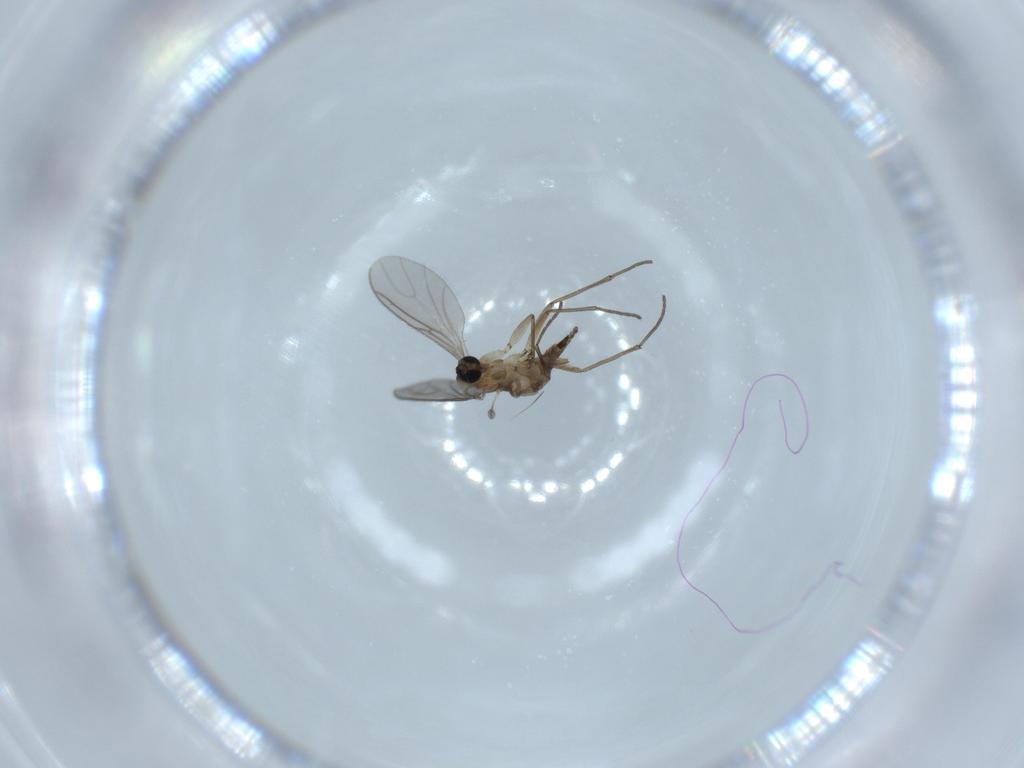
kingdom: Animalia
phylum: Arthropoda
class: Insecta
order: Diptera
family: Sciaridae
